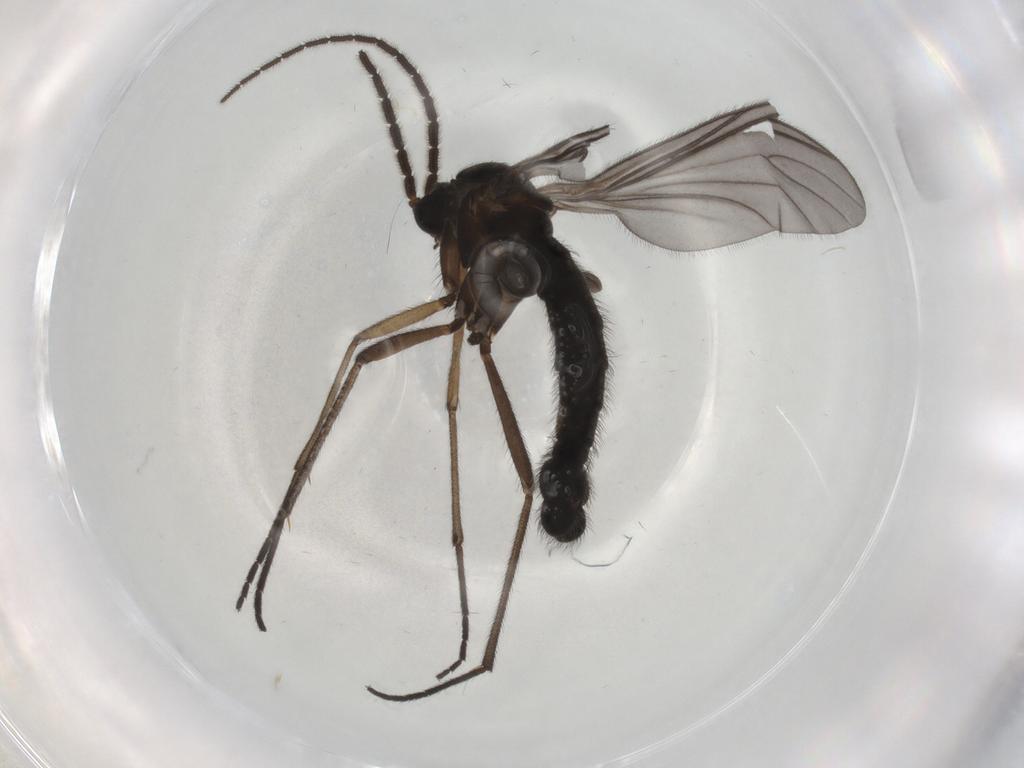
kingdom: Animalia
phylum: Arthropoda
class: Insecta
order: Diptera
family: Sciaridae
